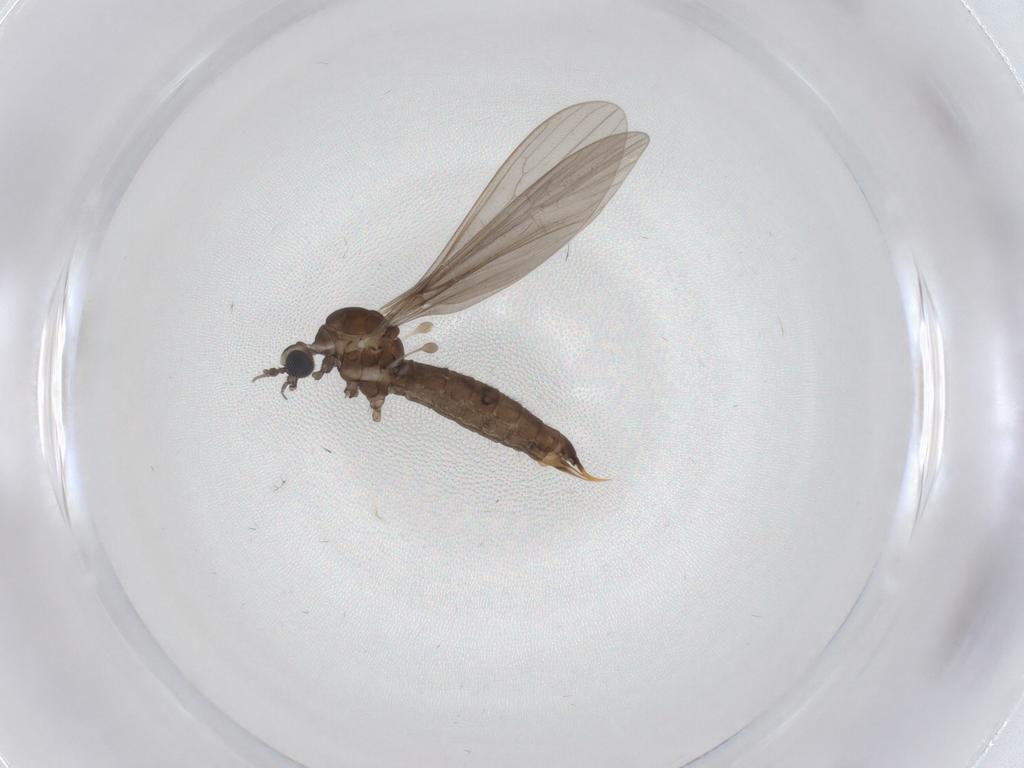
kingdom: Animalia
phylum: Arthropoda
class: Insecta
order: Diptera
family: Limoniidae
